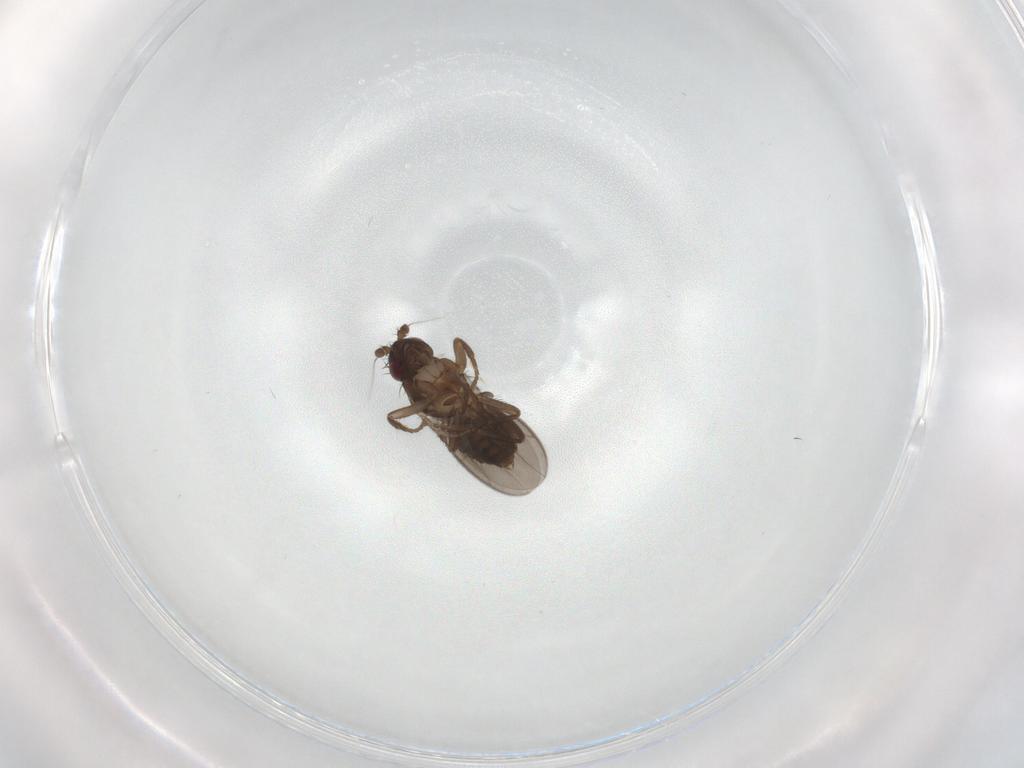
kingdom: Animalia
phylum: Arthropoda
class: Insecta
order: Diptera
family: Sphaeroceridae
